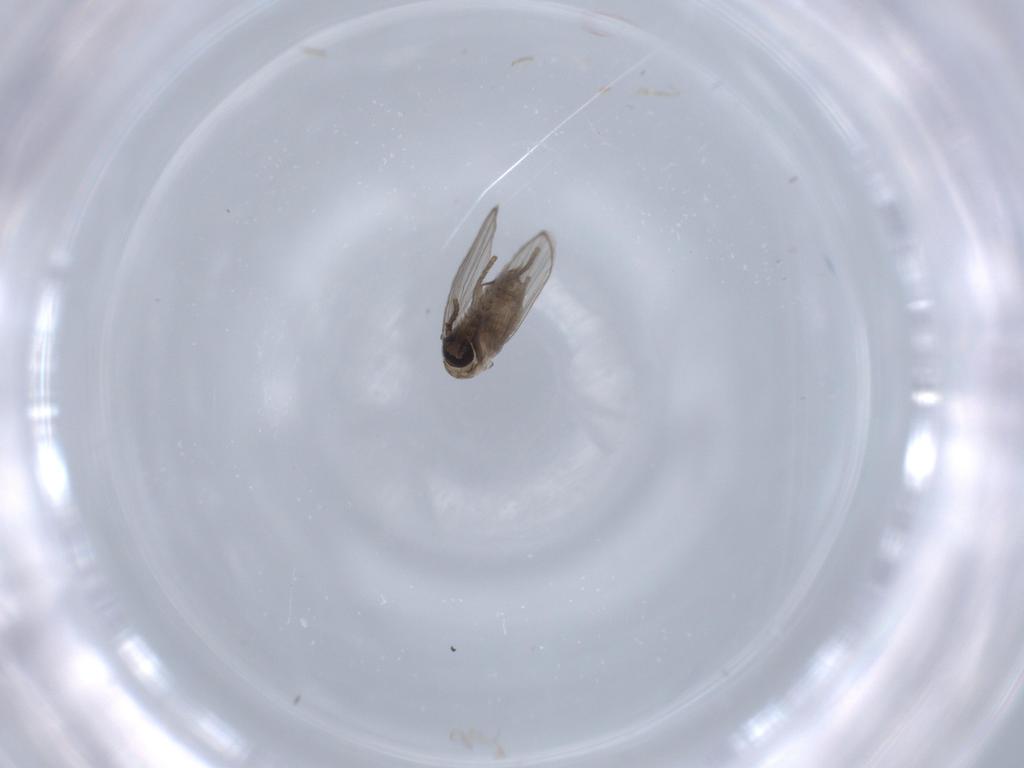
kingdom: Animalia
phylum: Arthropoda
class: Insecta
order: Diptera
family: Psychodidae
